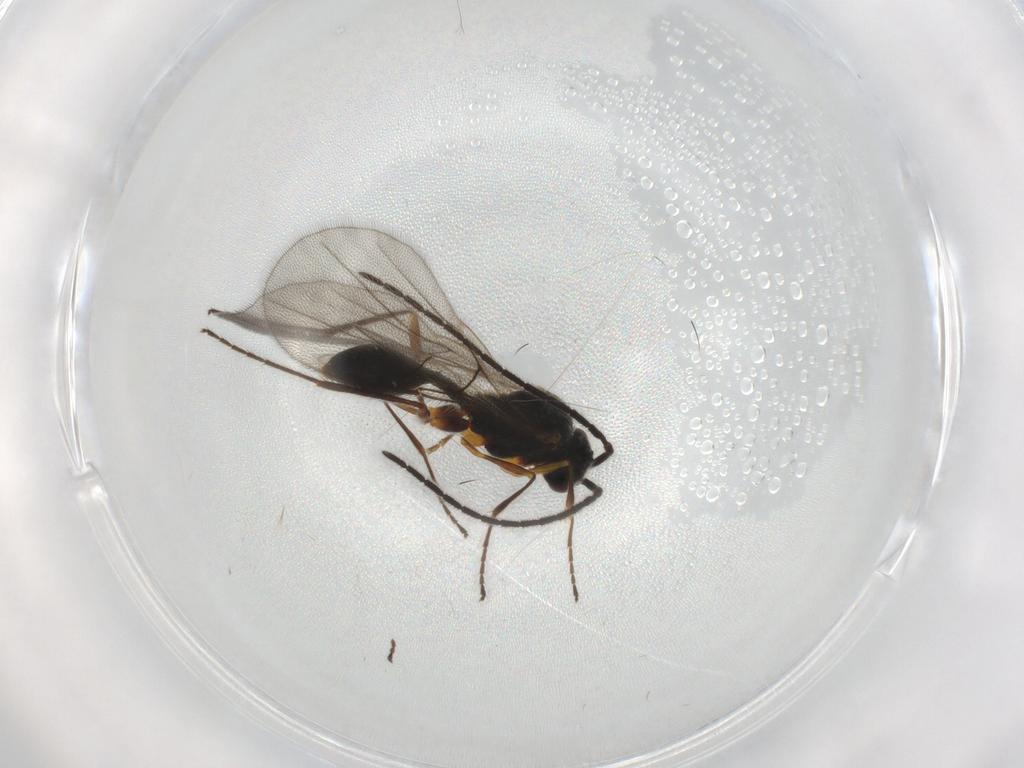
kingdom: Animalia
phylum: Arthropoda
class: Insecta
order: Hymenoptera
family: Diapriidae
